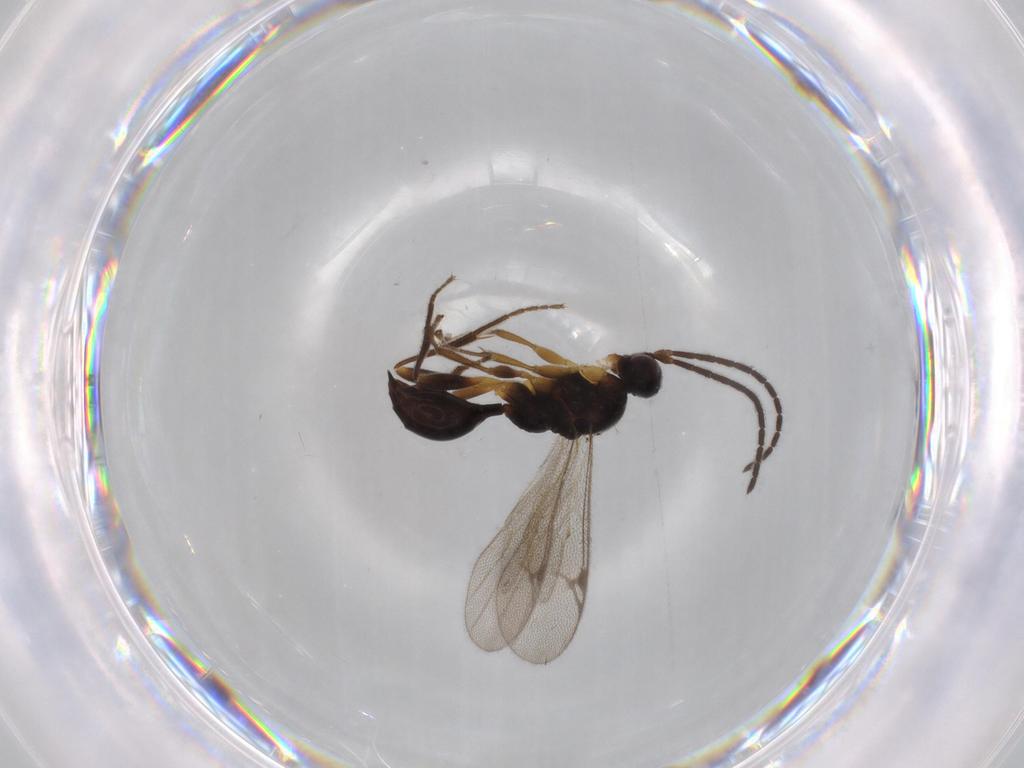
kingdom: Animalia
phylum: Arthropoda
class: Insecta
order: Hymenoptera
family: Proctotrupidae
